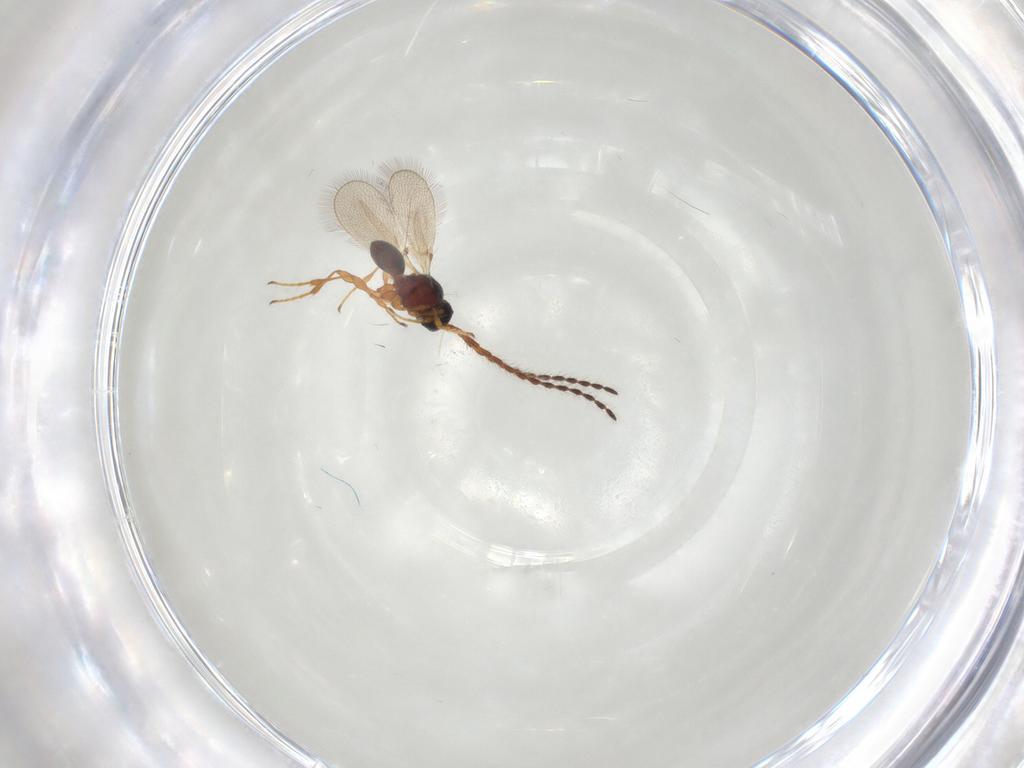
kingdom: Animalia
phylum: Arthropoda
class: Insecta
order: Hymenoptera
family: Diapriidae
